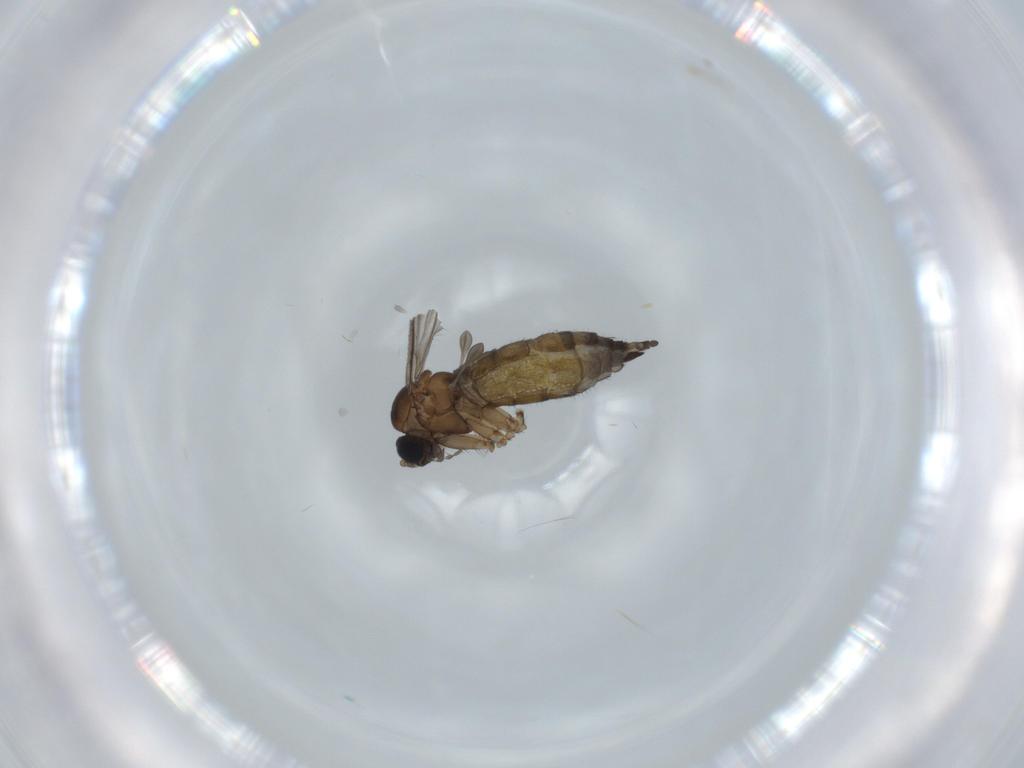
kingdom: Animalia
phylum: Arthropoda
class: Insecta
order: Diptera
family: Sciaridae
